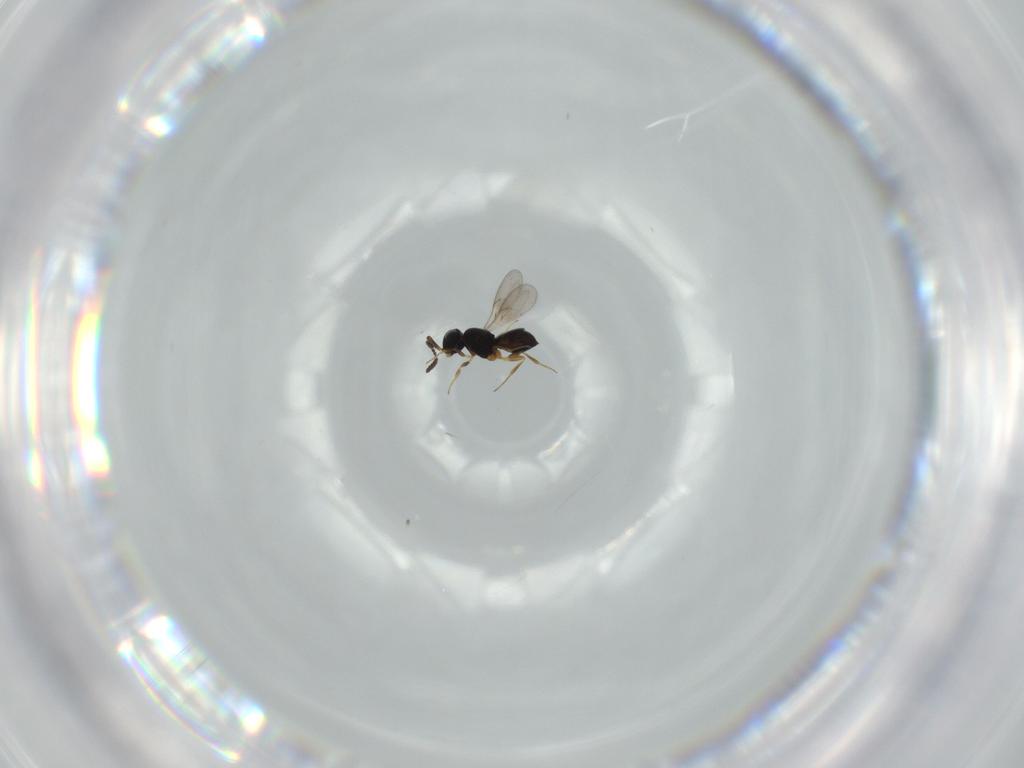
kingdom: Animalia
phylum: Arthropoda
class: Insecta
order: Hymenoptera
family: Scelionidae
